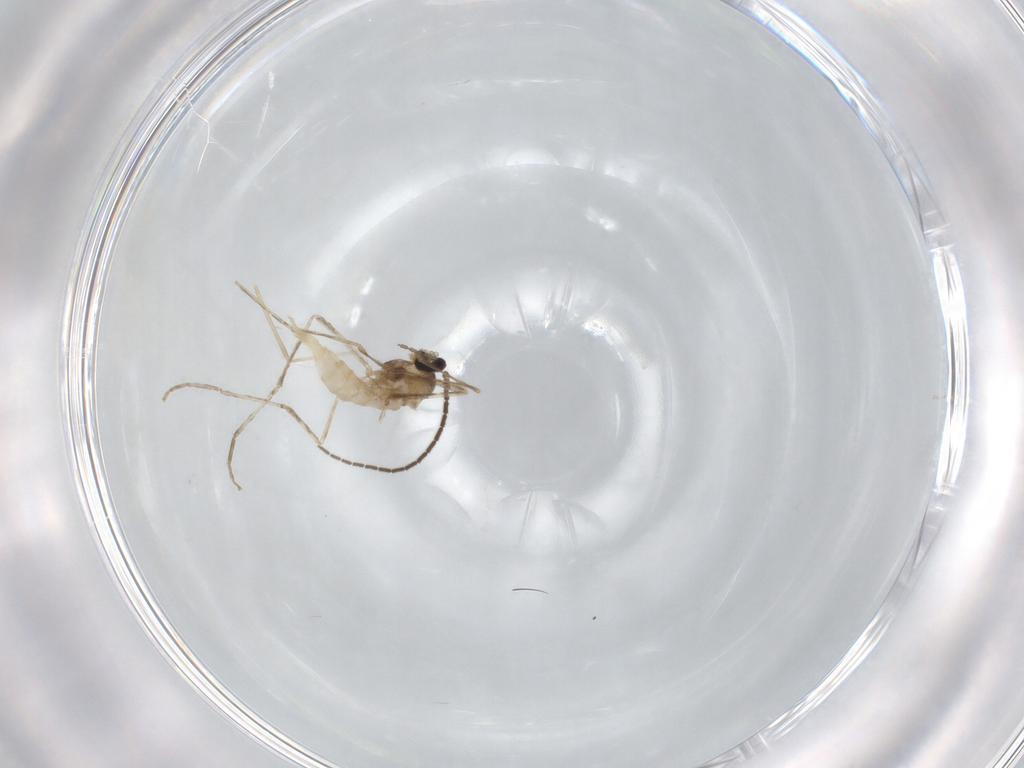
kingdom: Animalia
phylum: Arthropoda
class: Insecta
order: Diptera
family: Cecidomyiidae
